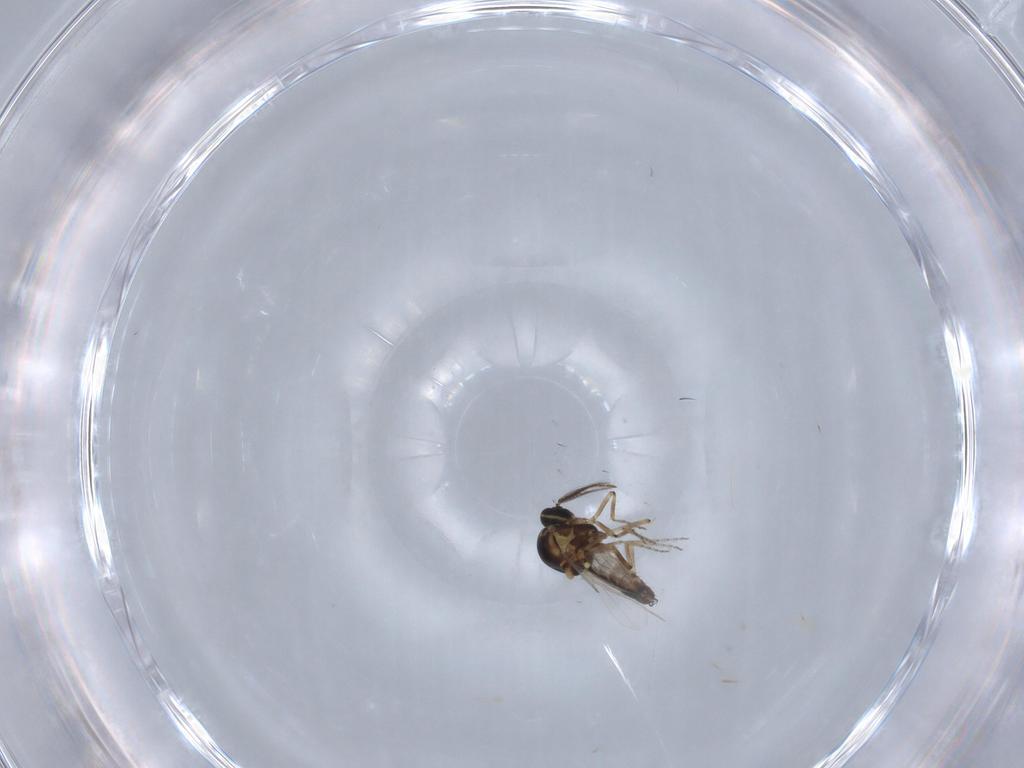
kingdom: Animalia
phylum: Arthropoda
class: Insecta
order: Diptera
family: Ceratopogonidae
